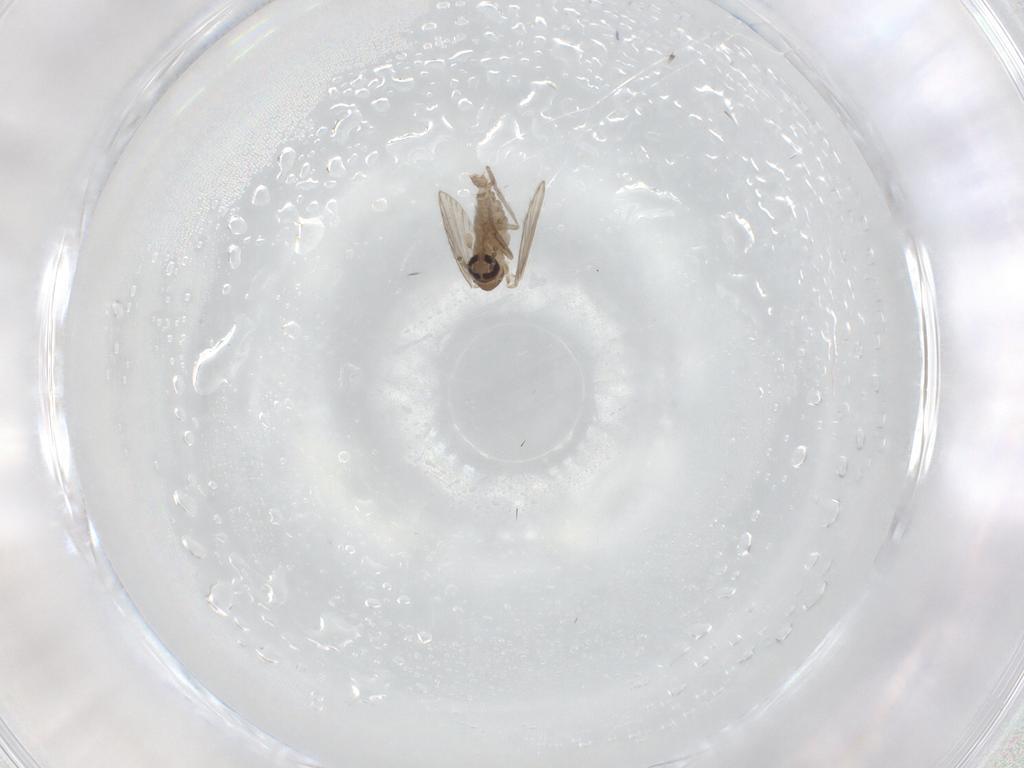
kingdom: Animalia
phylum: Arthropoda
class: Insecta
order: Diptera
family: Psychodidae
